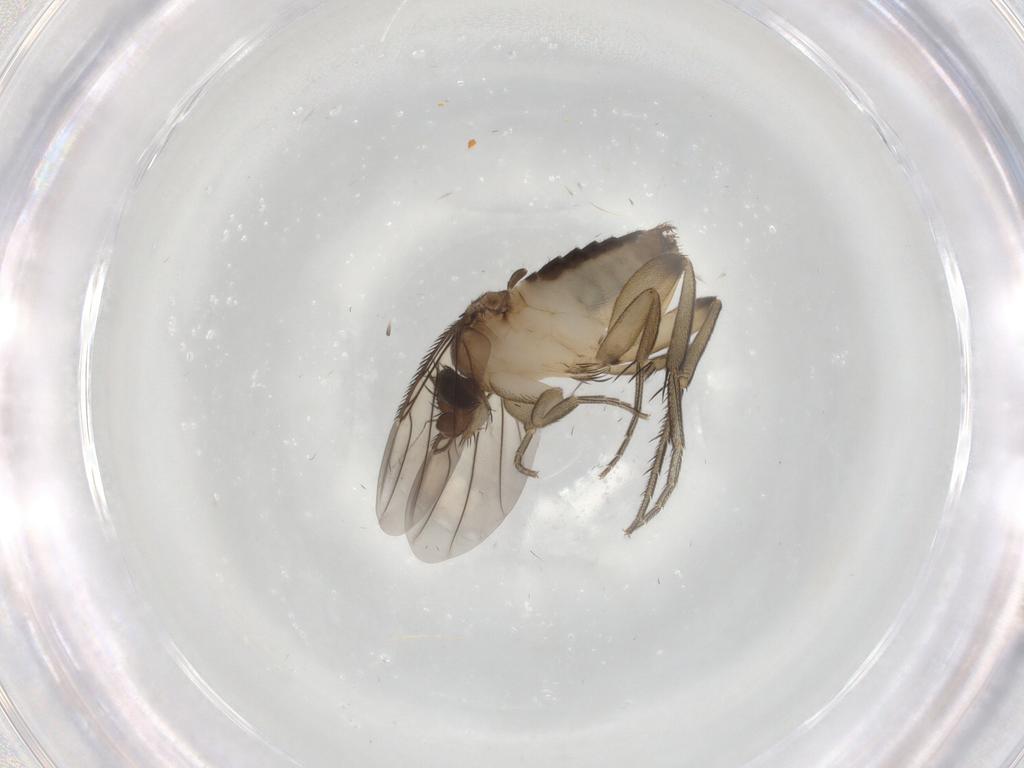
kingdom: Animalia
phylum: Arthropoda
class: Insecta
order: Diptera
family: Phoridae
